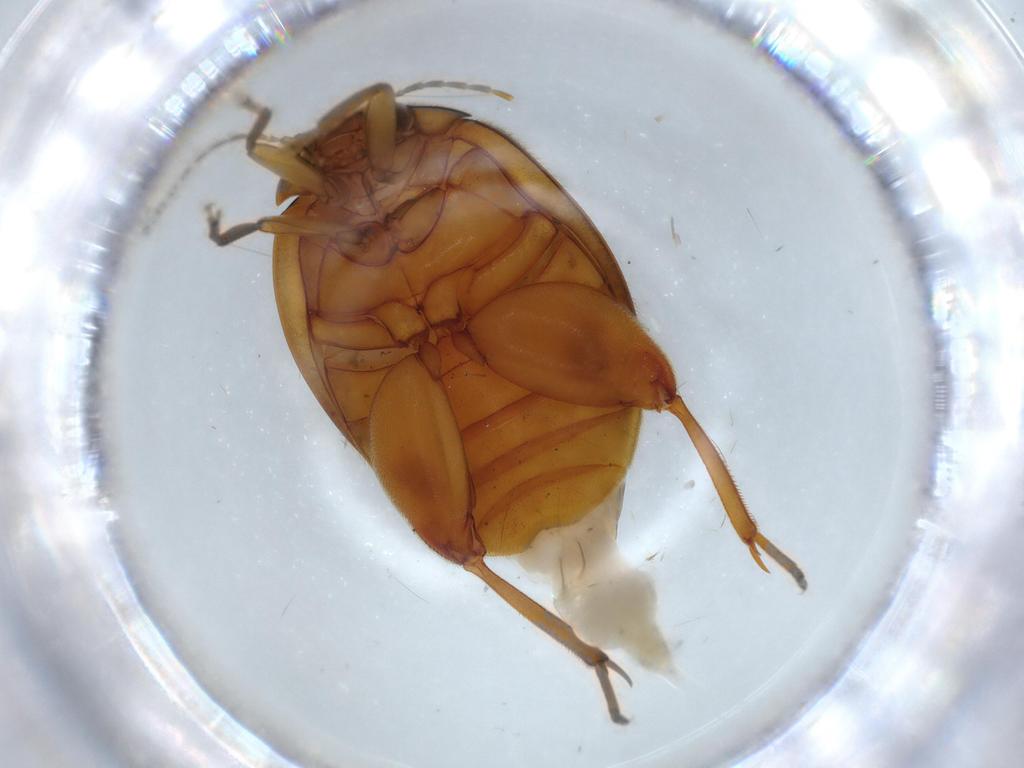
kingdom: Animalia
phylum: Arthropoda
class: Insecta
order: Coleoptera
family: Scirtidae
